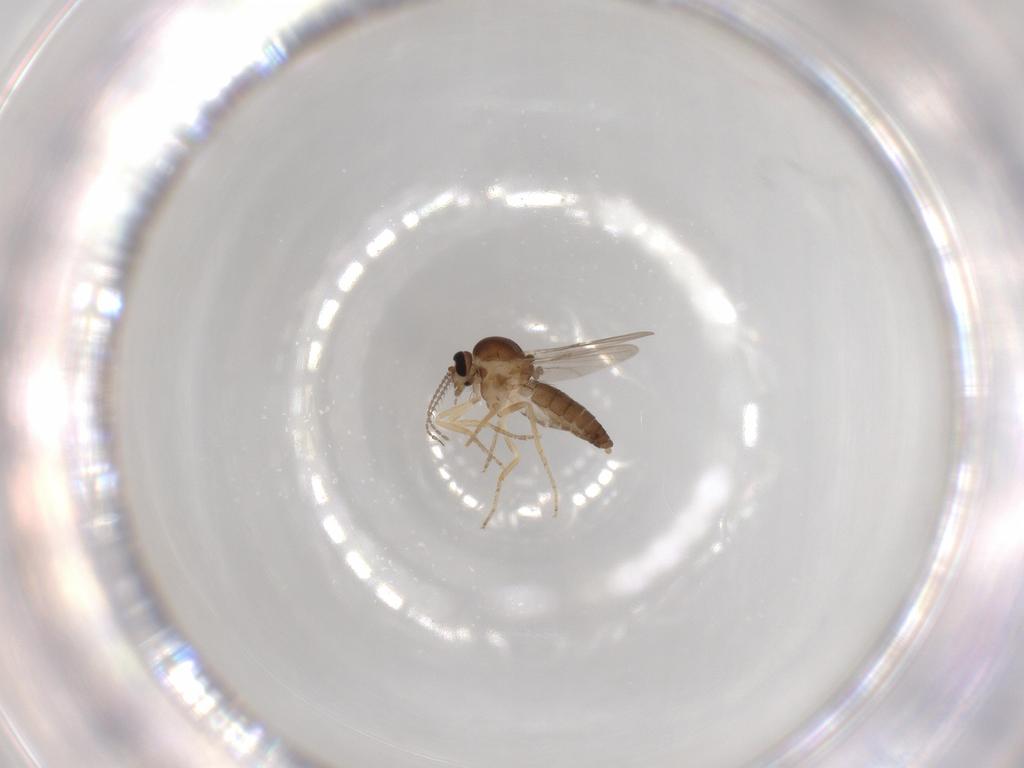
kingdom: Animalia
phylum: Arthropoda
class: Insecta
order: Diptera
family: Ceratopogonidae
